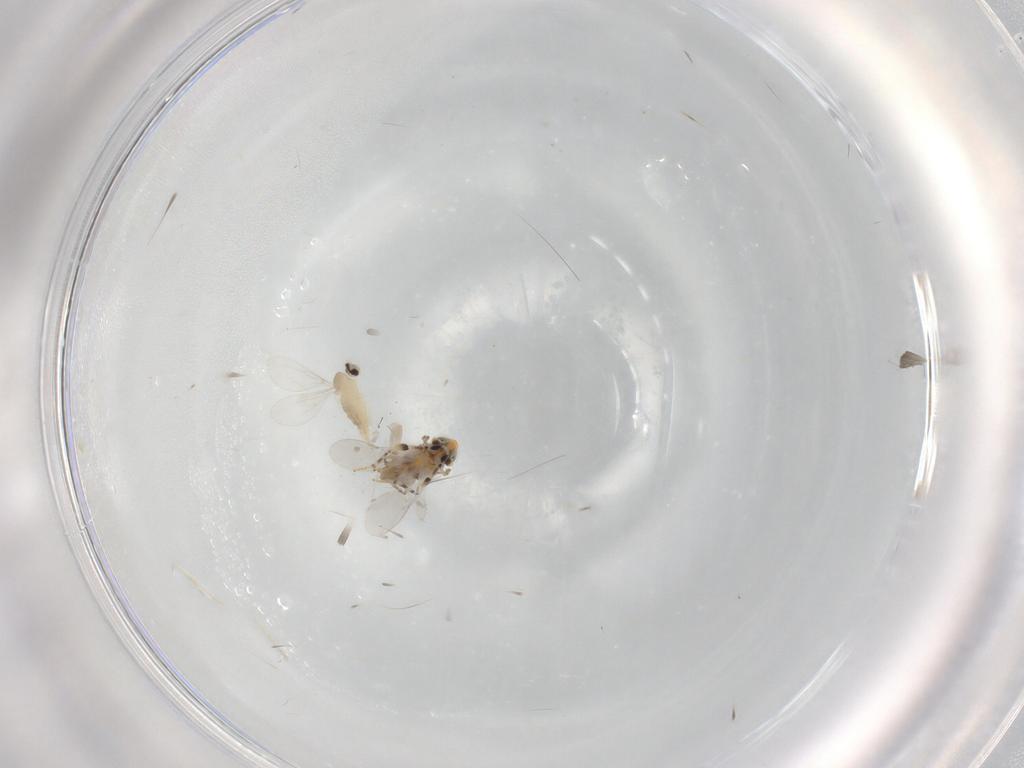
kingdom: Animalia
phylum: Arthropoda
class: Insecta
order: Diptera
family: Cecidomyiidae
